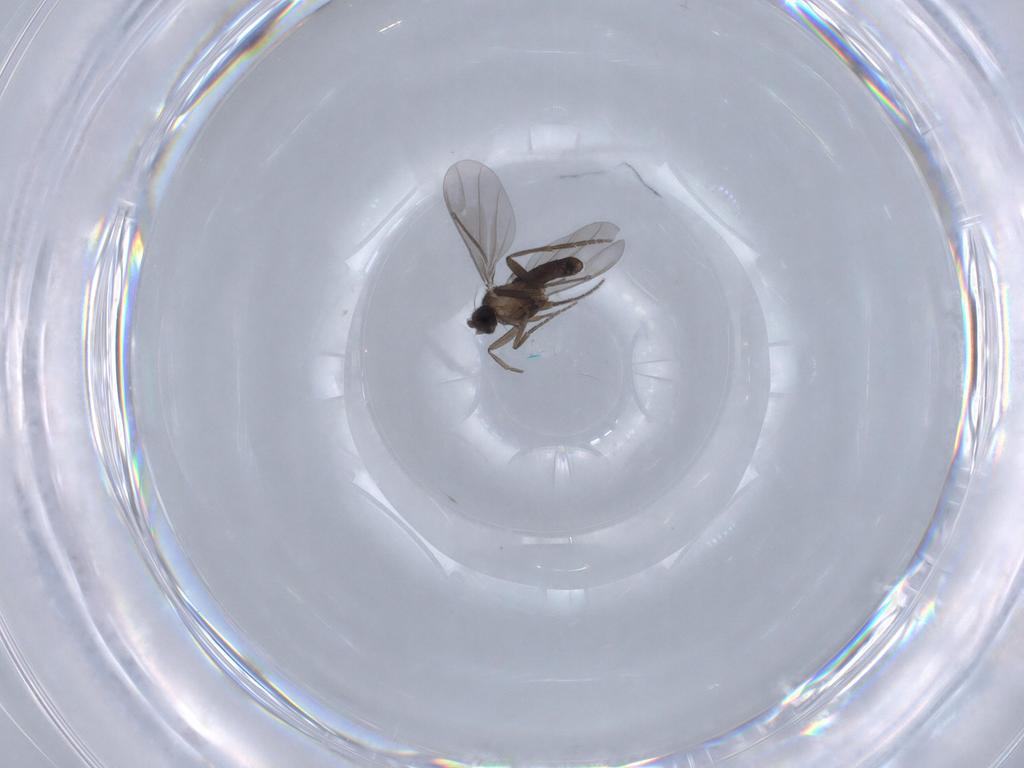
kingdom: Animalia
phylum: Arthropoda
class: Insecta
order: Diptera
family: Phoridae
